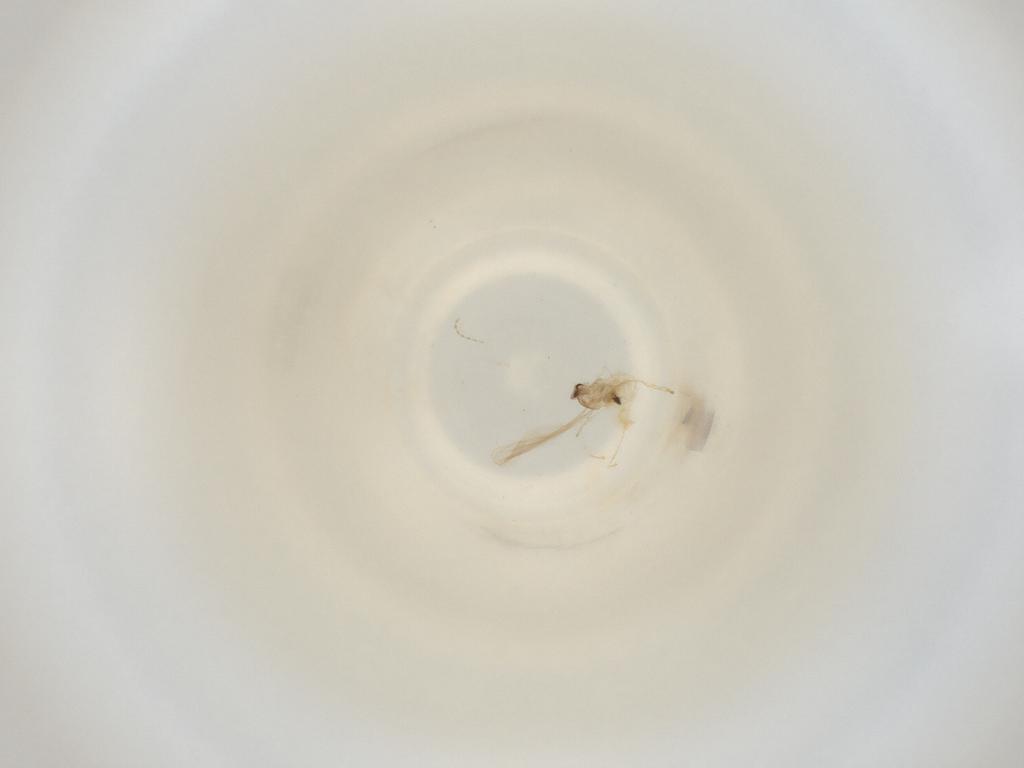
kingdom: Animalia
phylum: Arthropoda
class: Insecta
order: Diptera
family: Cecidomyiidae
